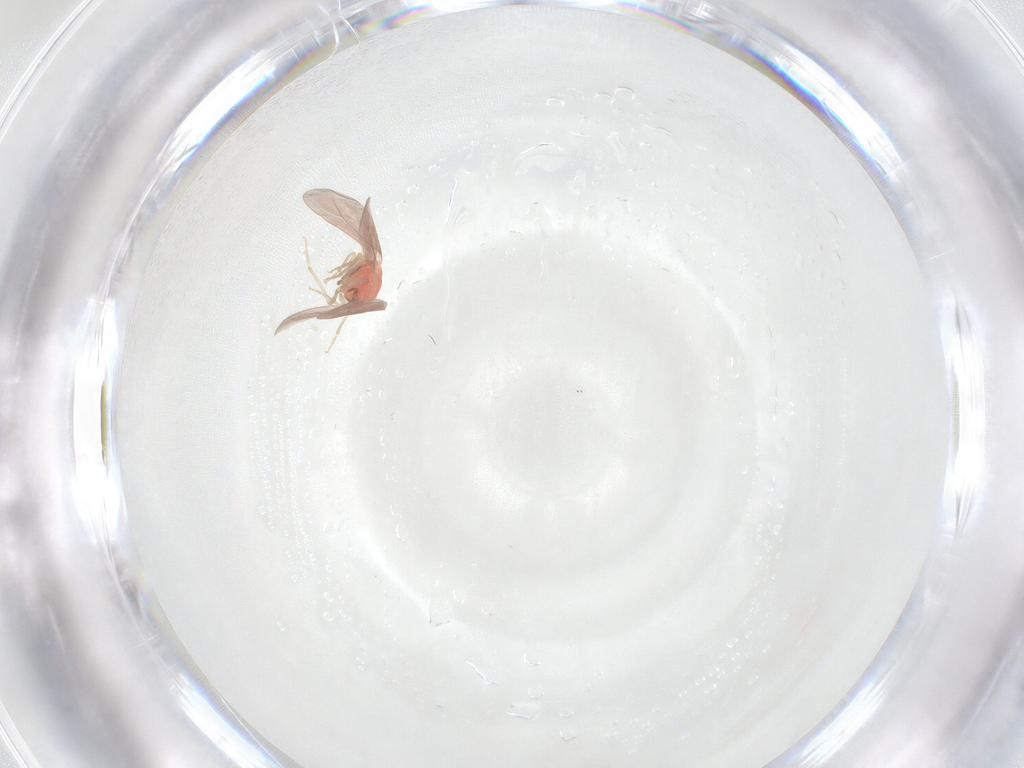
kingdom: Animalia
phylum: Arthropoda
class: Insecta
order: Hemiptera
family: Aleyrodidae
